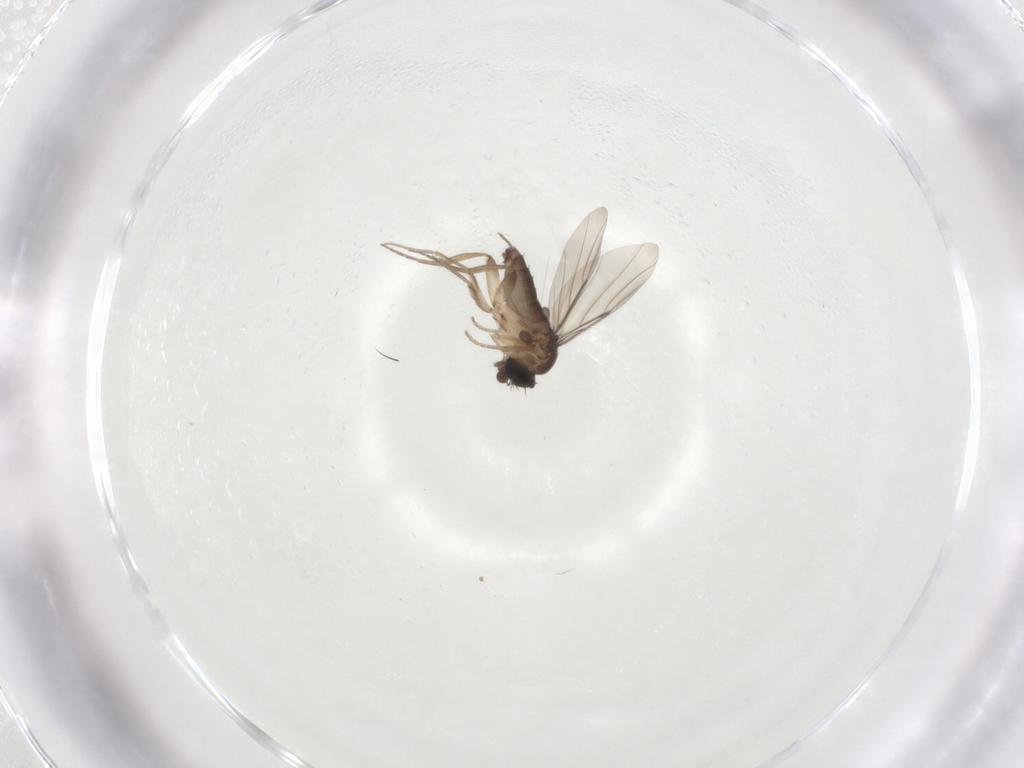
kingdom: Animalia
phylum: Arthropoda
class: Insecta
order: Diptera
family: Phoridae
